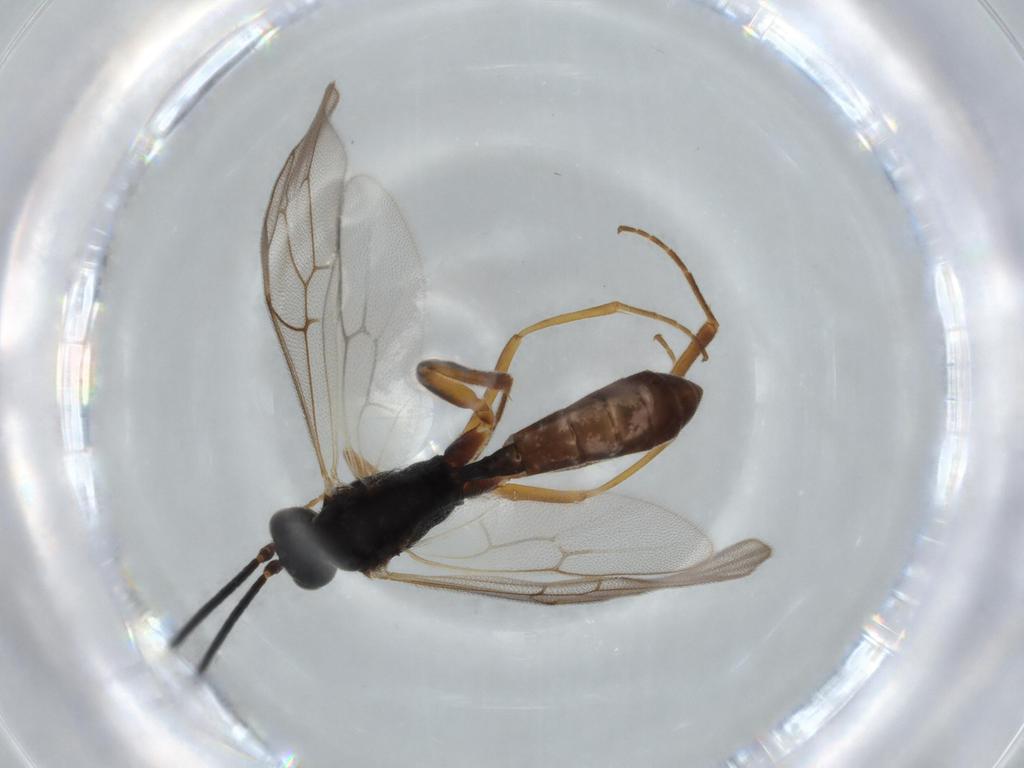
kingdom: Animalia
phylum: Arthropoda
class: Insecta
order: Hymenoptera
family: Ichneumonidae
